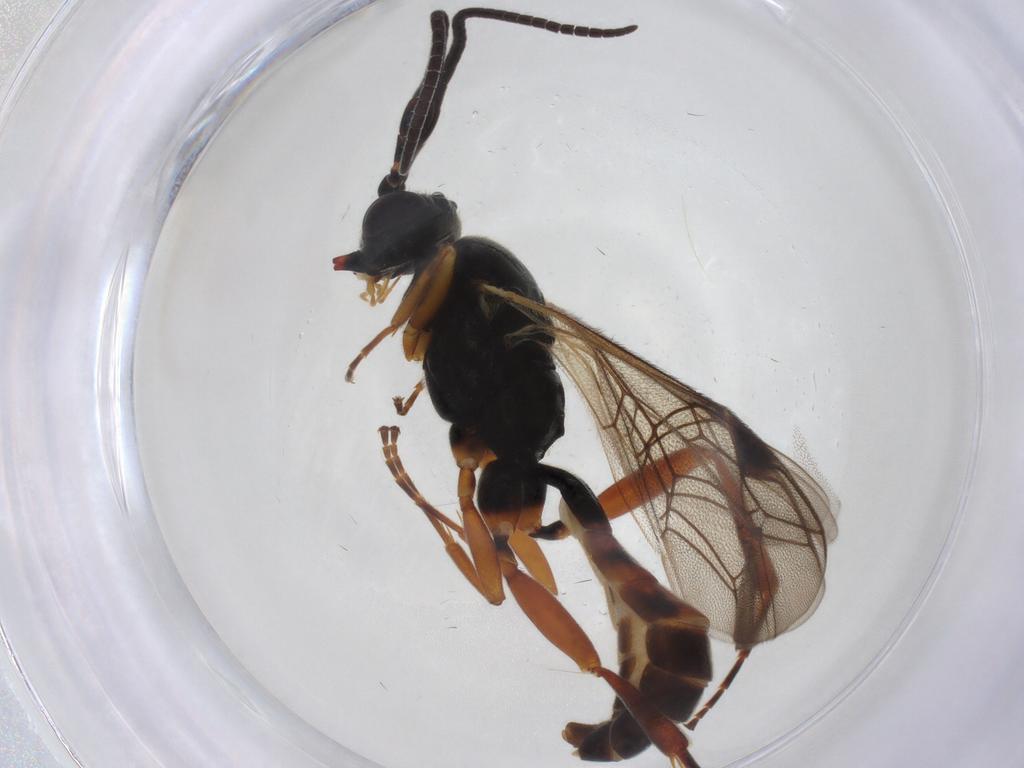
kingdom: Animalia
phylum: Arthropoda
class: Insecta
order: Hymenoptera
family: Ichneumonidae
